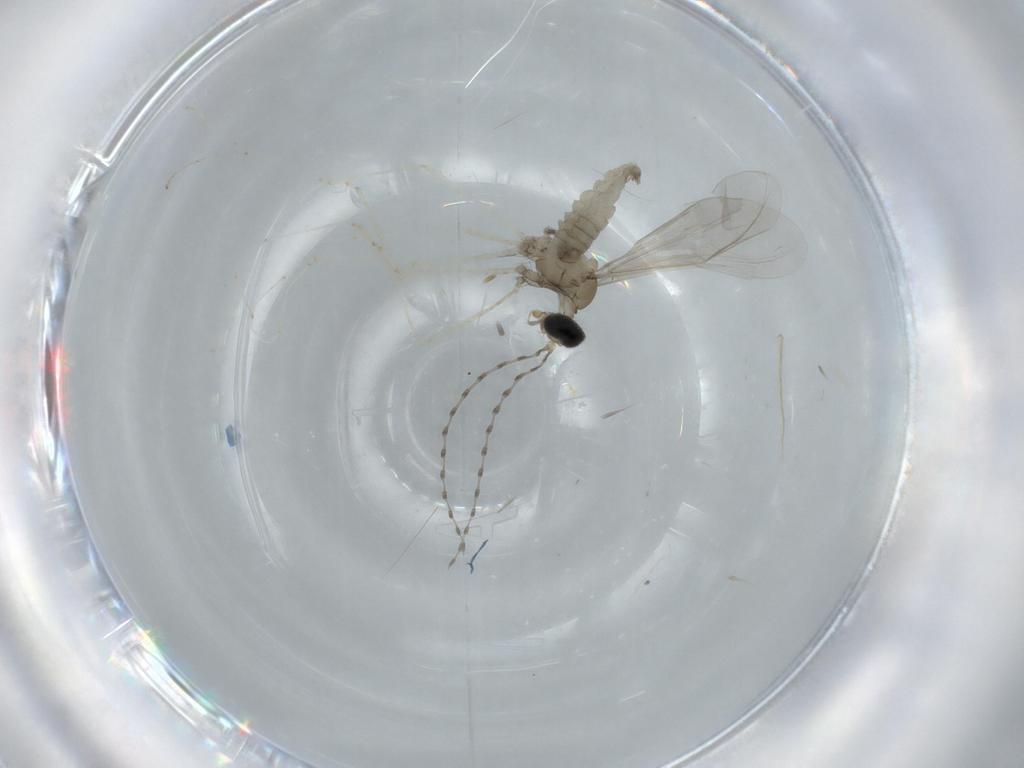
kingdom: Animalia
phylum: Arthropoda
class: Insecta
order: Diptera
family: Cecidomyiidae
